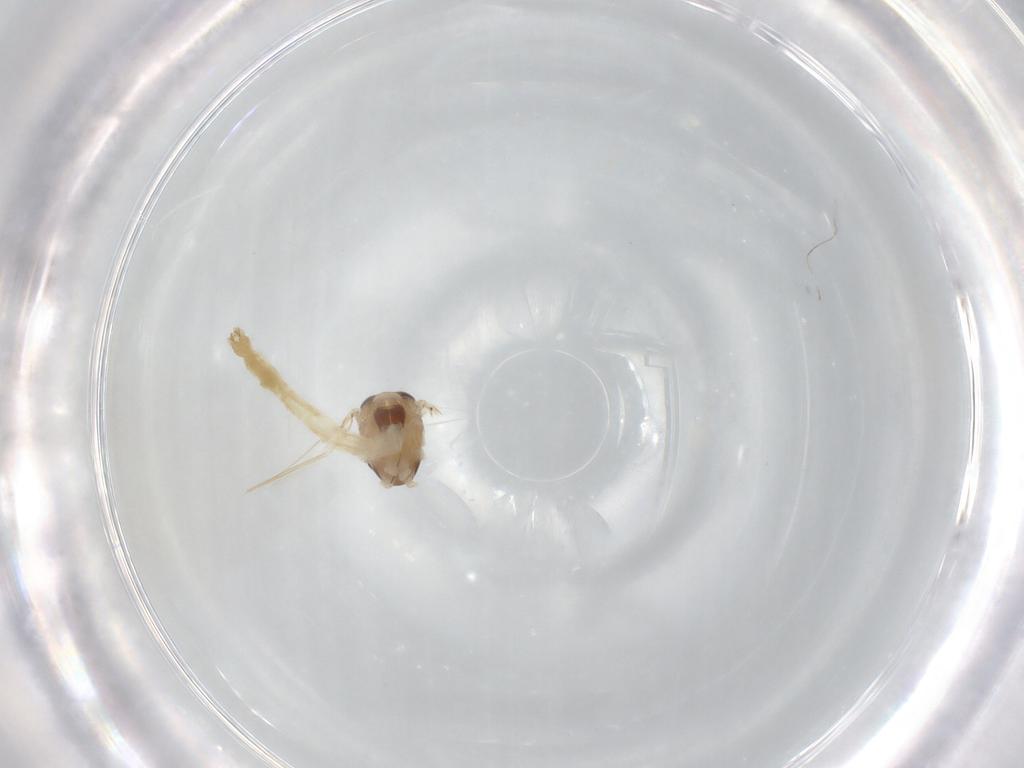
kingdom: Animalia
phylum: Arthropoda
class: Insecta
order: Diptera
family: Chironomidae
